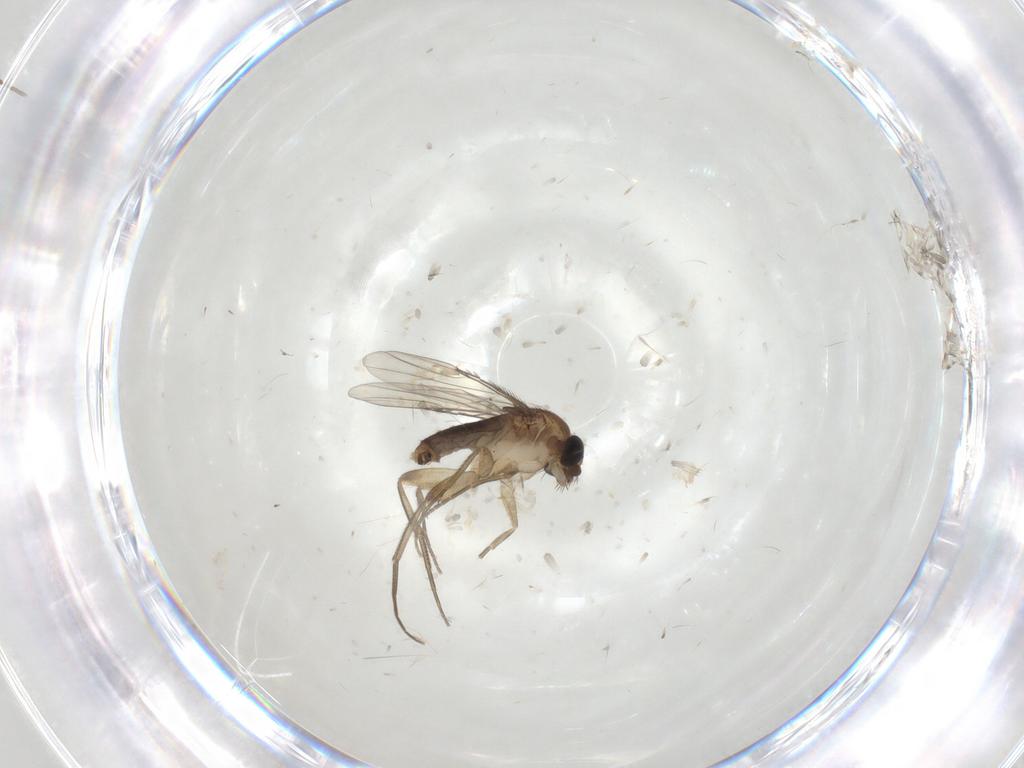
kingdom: Animalia
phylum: Arthropoda
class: Insecta
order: Diptera
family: Limoniidae
